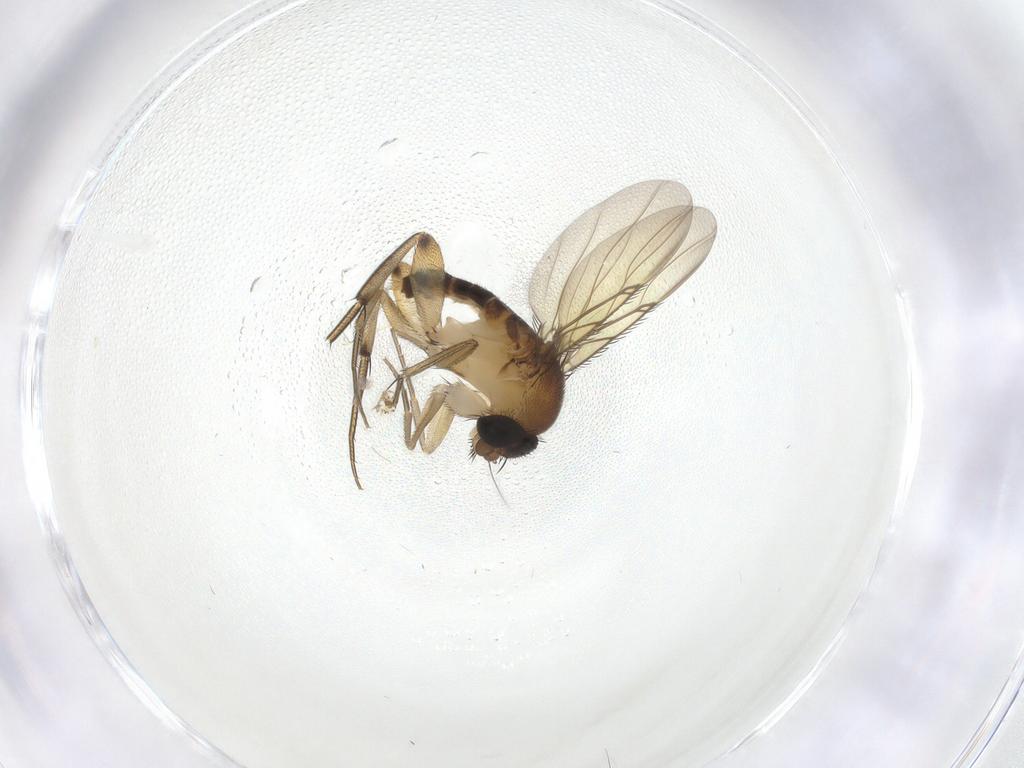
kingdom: Animalia
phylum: Arthropoda
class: Insecta
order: Diptera
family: Phoridae
